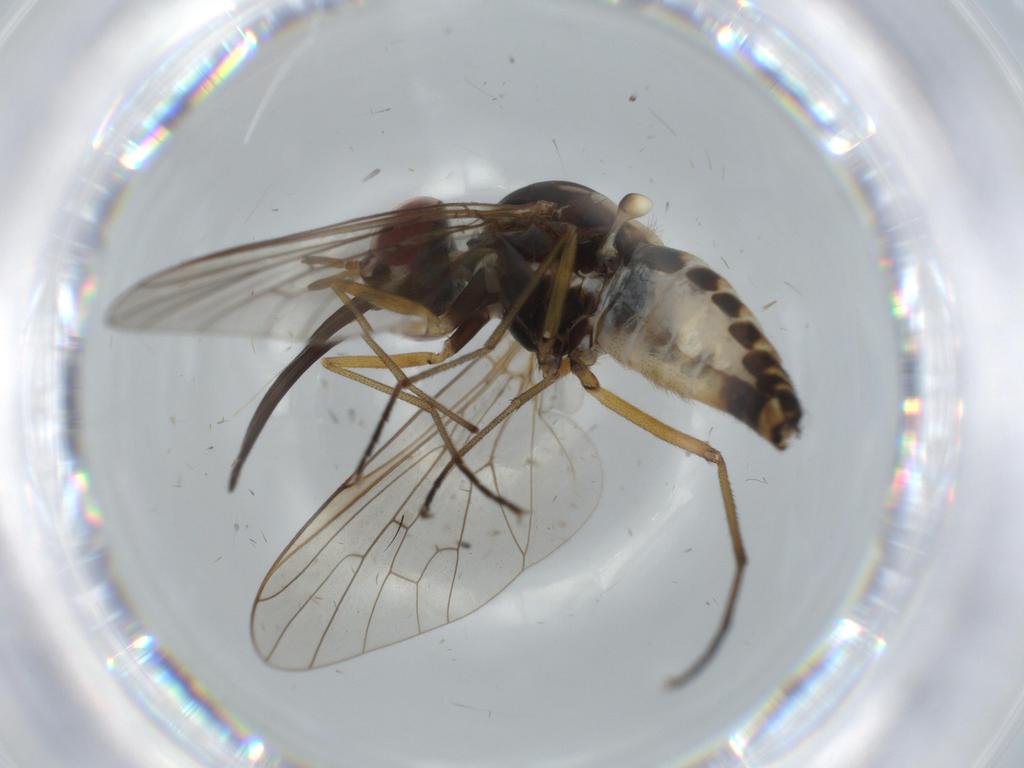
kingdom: Animalia
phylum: Arthropoda
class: Insecta
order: Diptera
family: Bombyliidae
